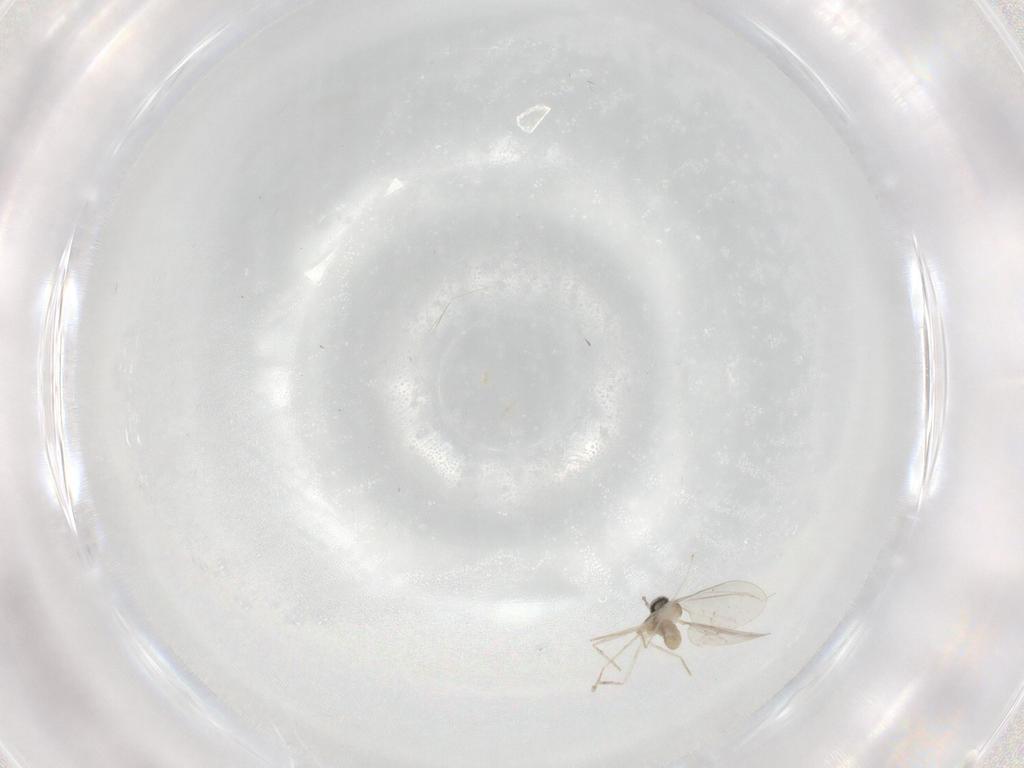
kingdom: Animalia
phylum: Arthropoda
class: Insecta
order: Diptera
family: Cecidomyiidae
